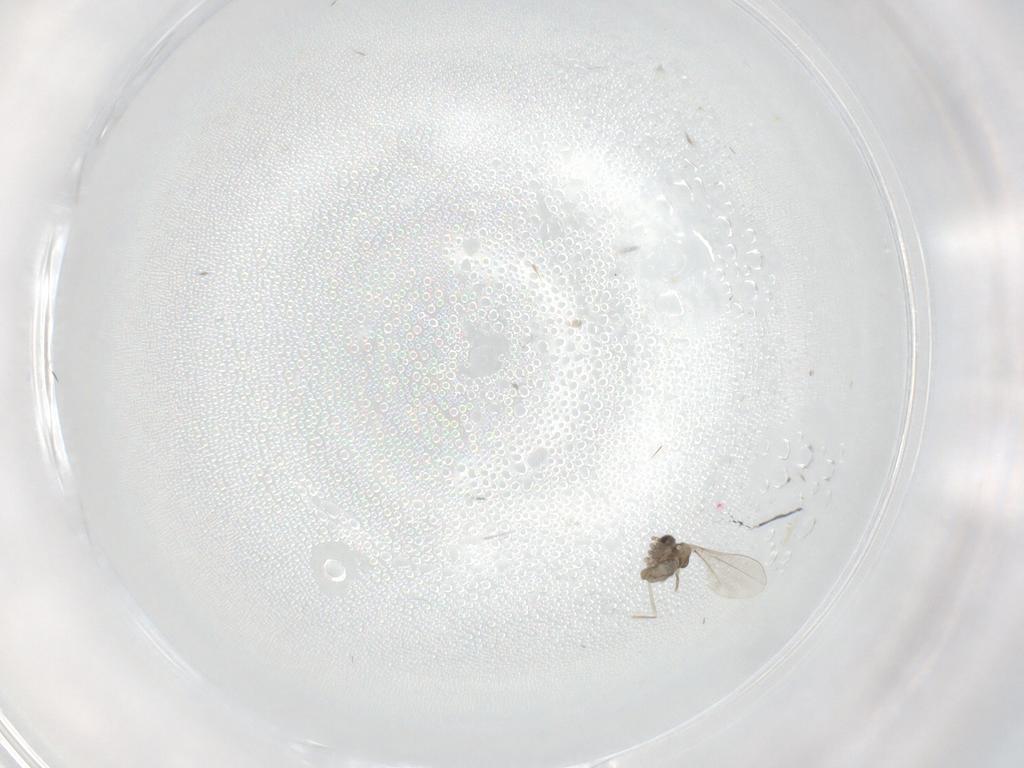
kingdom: Animalia
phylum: Arthropoda
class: Insecta
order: Diptera
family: Cecidomyiidae
